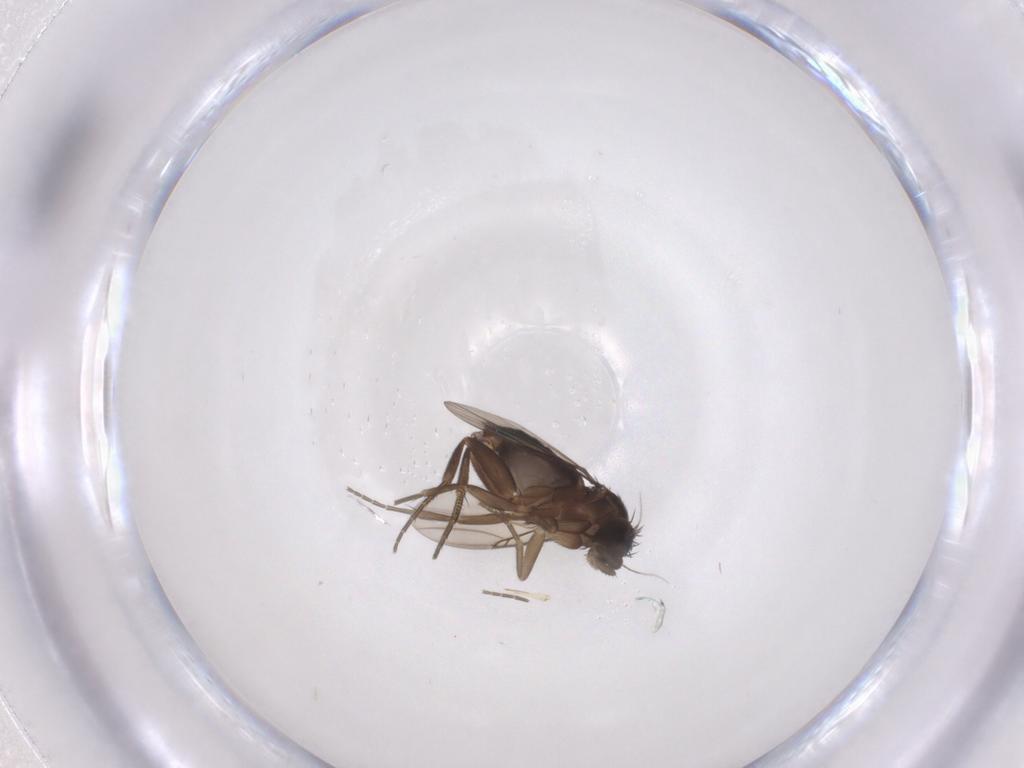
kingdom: Animalia
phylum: Arthropoda
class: Insecta
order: Diptera
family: Phoridae
